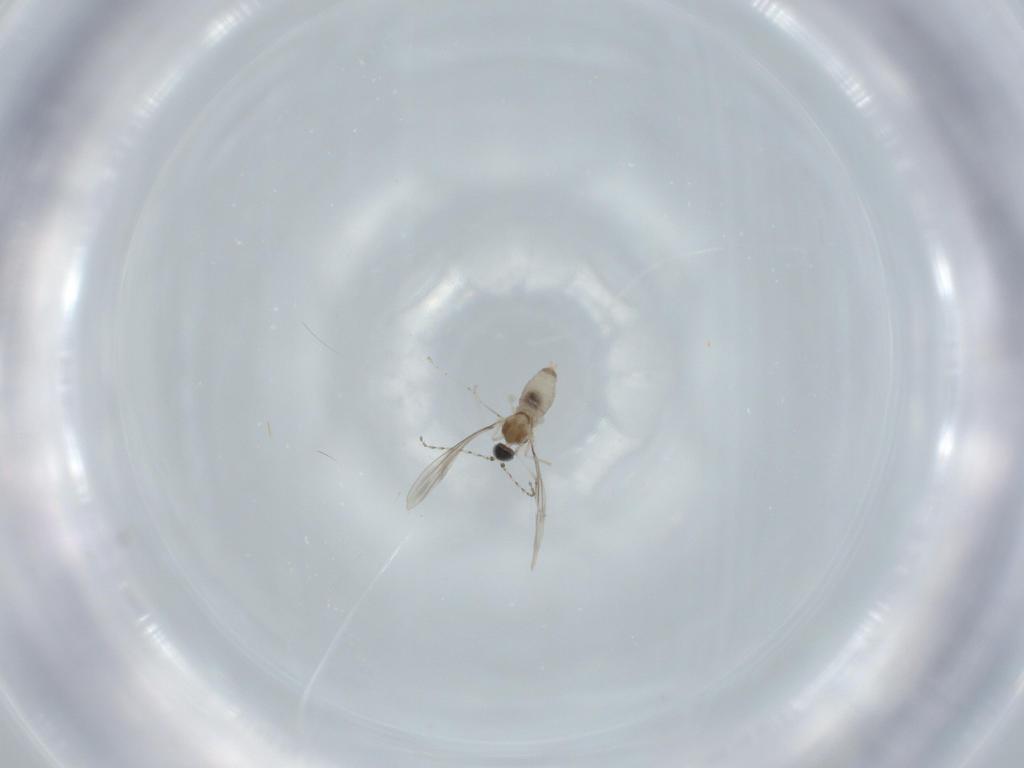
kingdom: Animalia
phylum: Arthropoda
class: Insecta
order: Diptera
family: Cecidomyiidae
